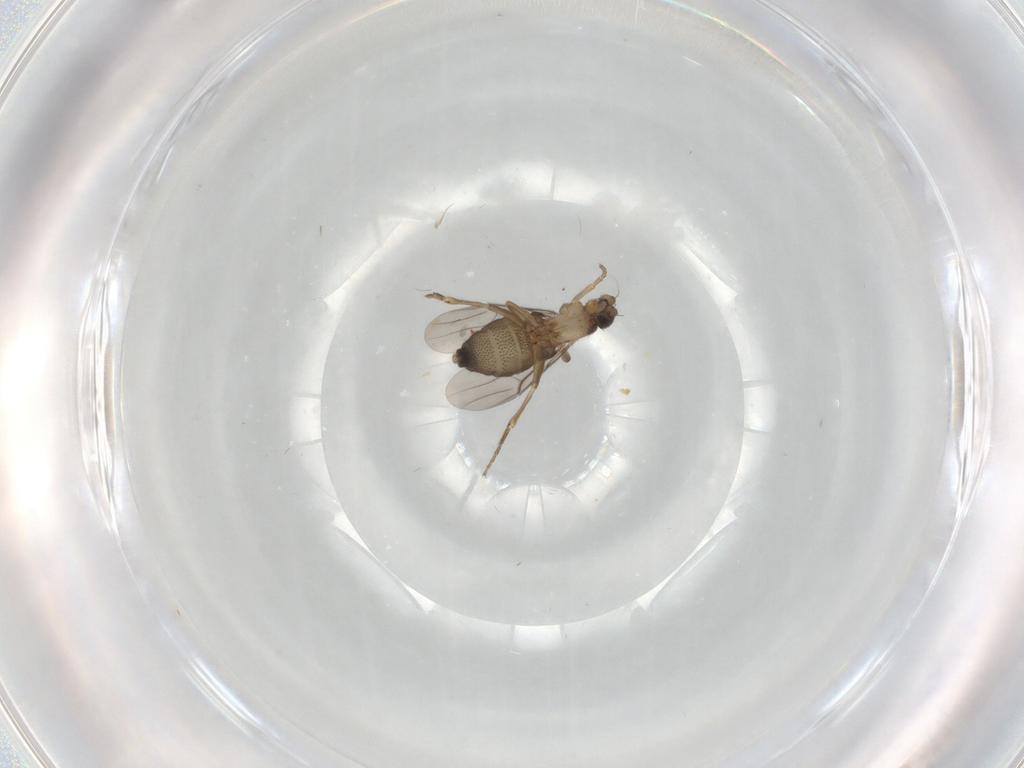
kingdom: Animalia
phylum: Arthropoda
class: Insecta
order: Diptera
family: Phoridae
